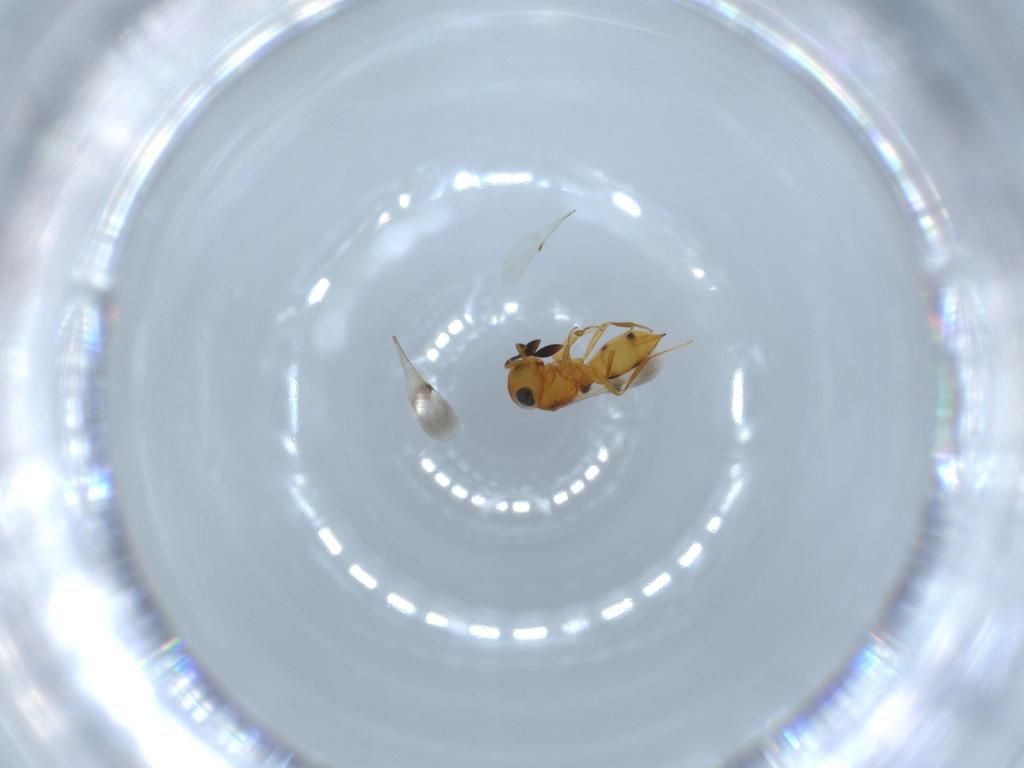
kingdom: Animalia
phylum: Arthropoda
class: Insecta
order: Hymenoptera
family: Scelionidae
